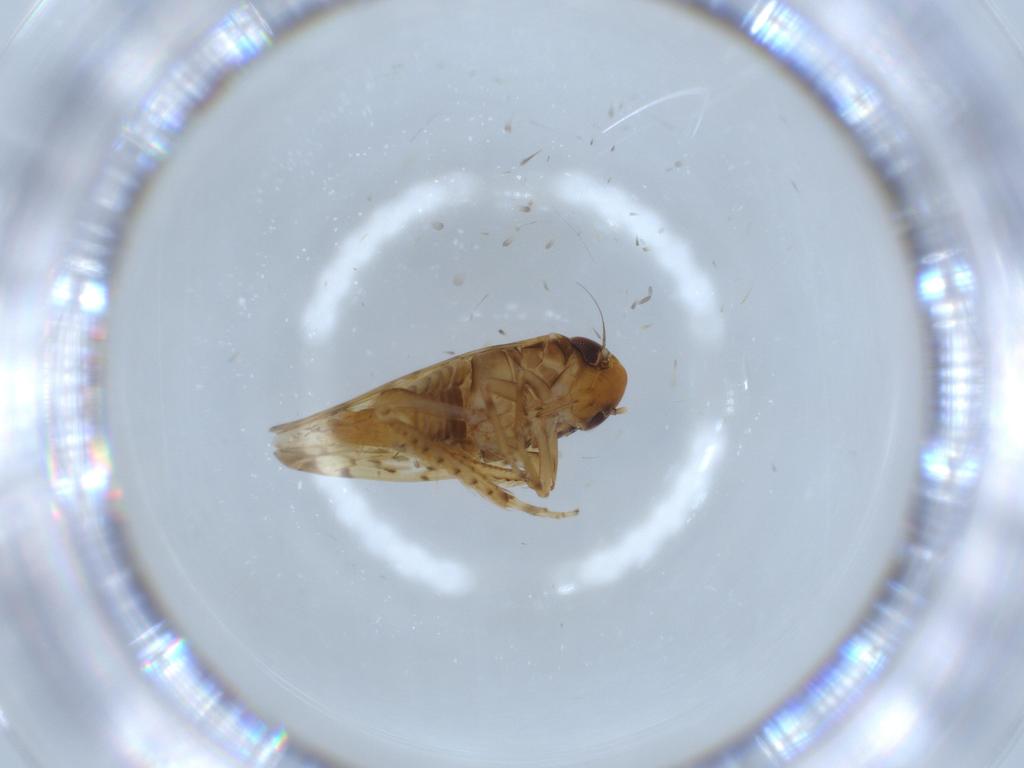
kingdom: Animalia
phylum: Arthropoda
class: Insecta
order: Hemiptera
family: Cicadellidae
